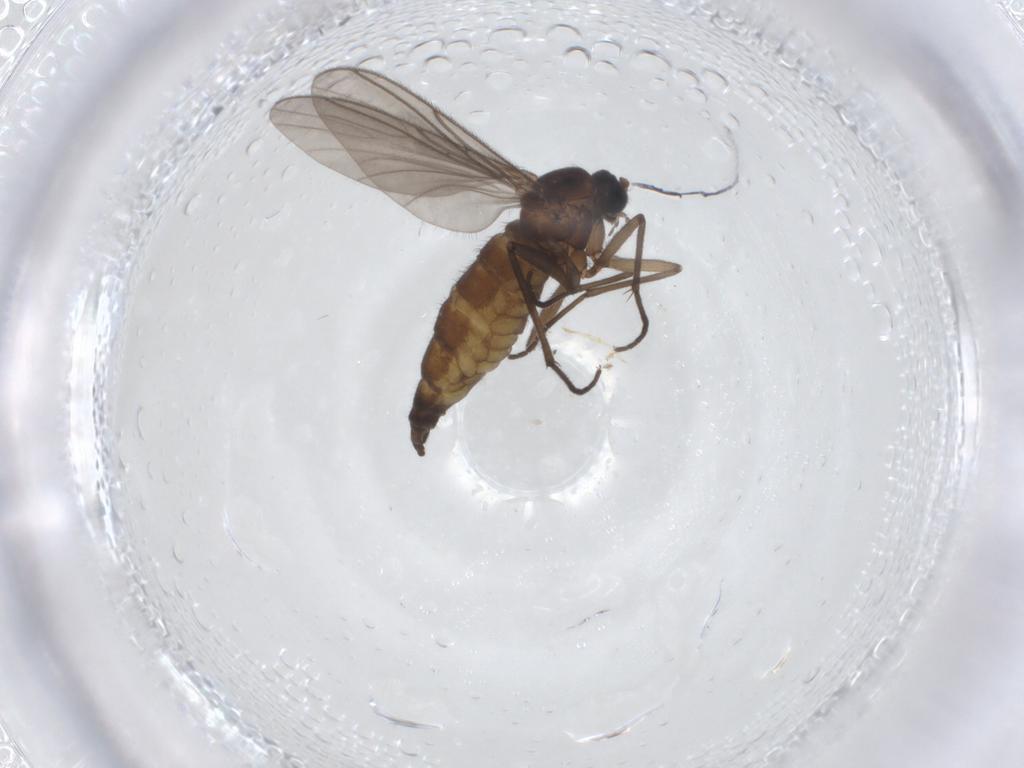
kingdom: Animalia
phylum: Arthropoda
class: Insecta
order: Diptera
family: Sciaridae
